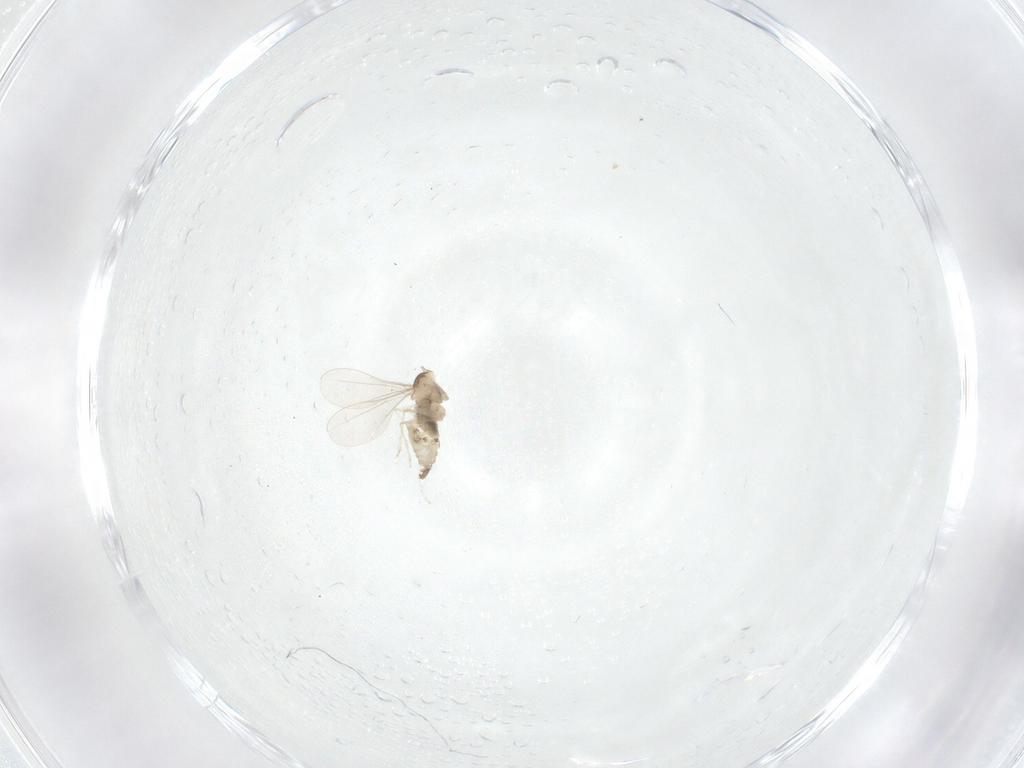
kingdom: Animalia
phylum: Arthropoda
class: Insecta
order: Diptera
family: Cecidomyiidae
